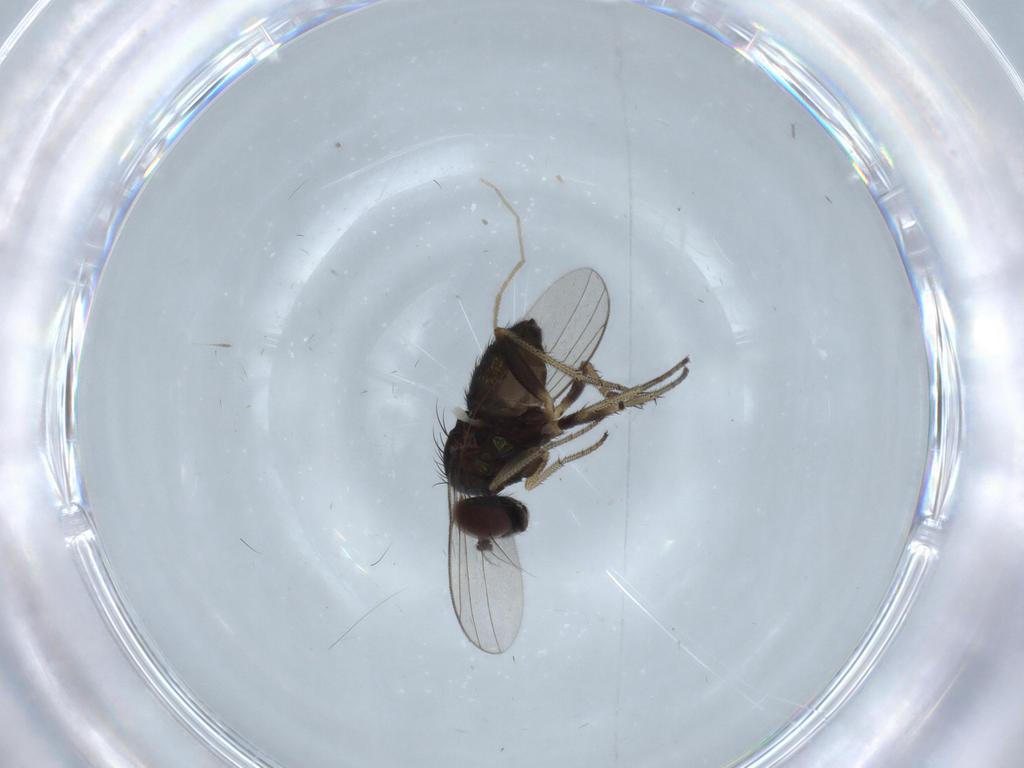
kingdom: Animalia
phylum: Arthropoda
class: Insecta
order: Diptera
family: Chironomidae
